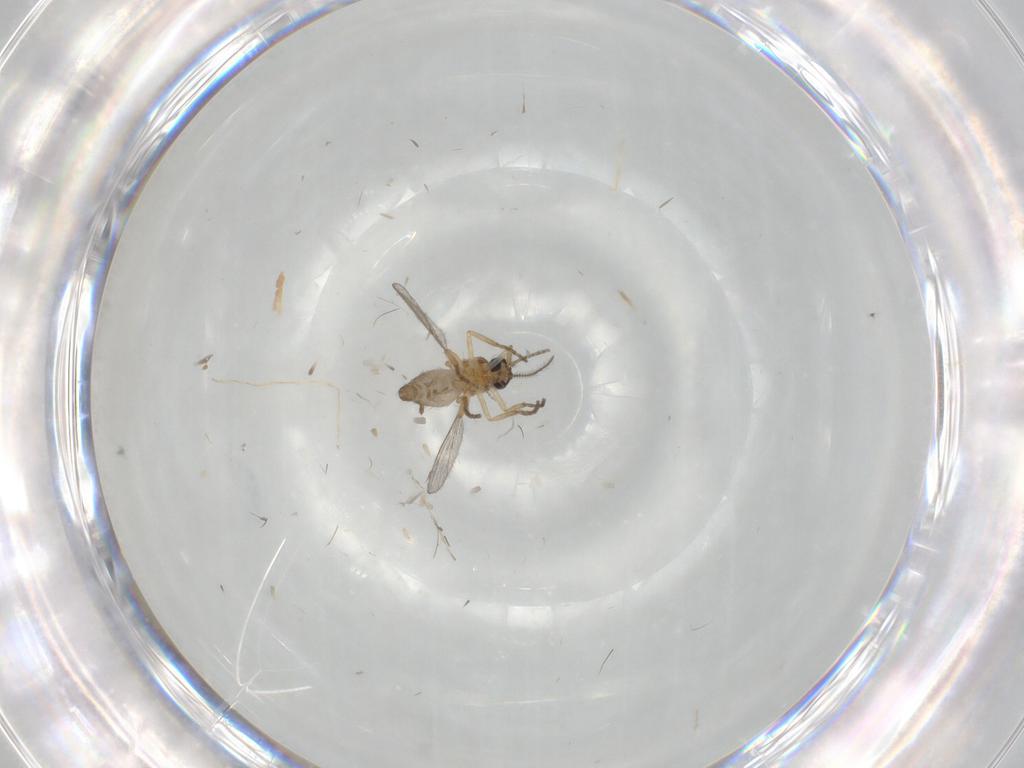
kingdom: Animalia
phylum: Arthropoda
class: Insecta
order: Diptera
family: Cecidomyiidae
